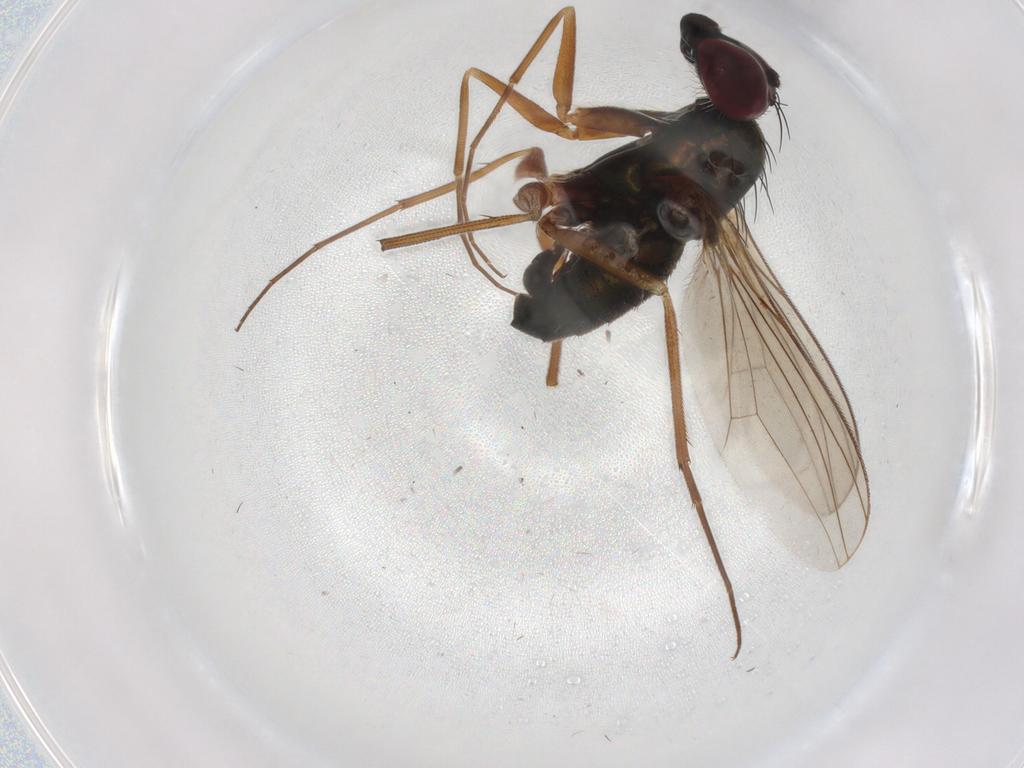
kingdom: Animalia
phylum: Arthropoda
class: Insecta
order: Diptera
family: Dolichopodidae
